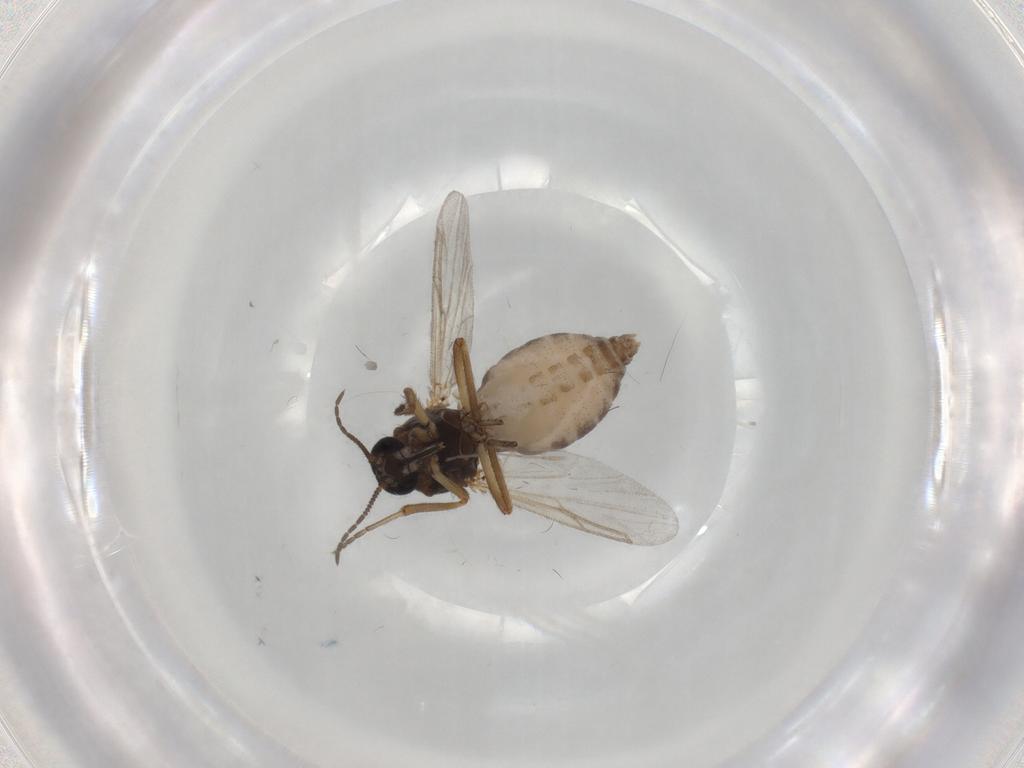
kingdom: Animalia
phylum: Arthropoda
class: Insecta
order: Diptera
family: Ceratopogonidae
